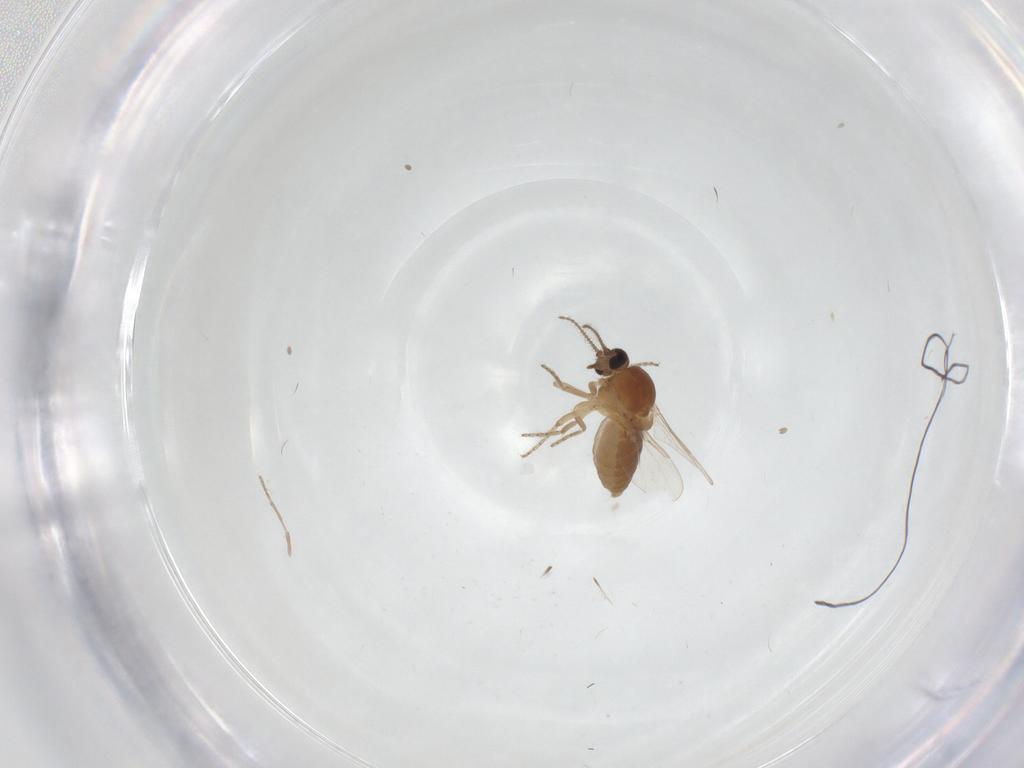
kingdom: Animalia
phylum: Arthropoda
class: Insecta
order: Diptera
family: Ceratopogonidae
